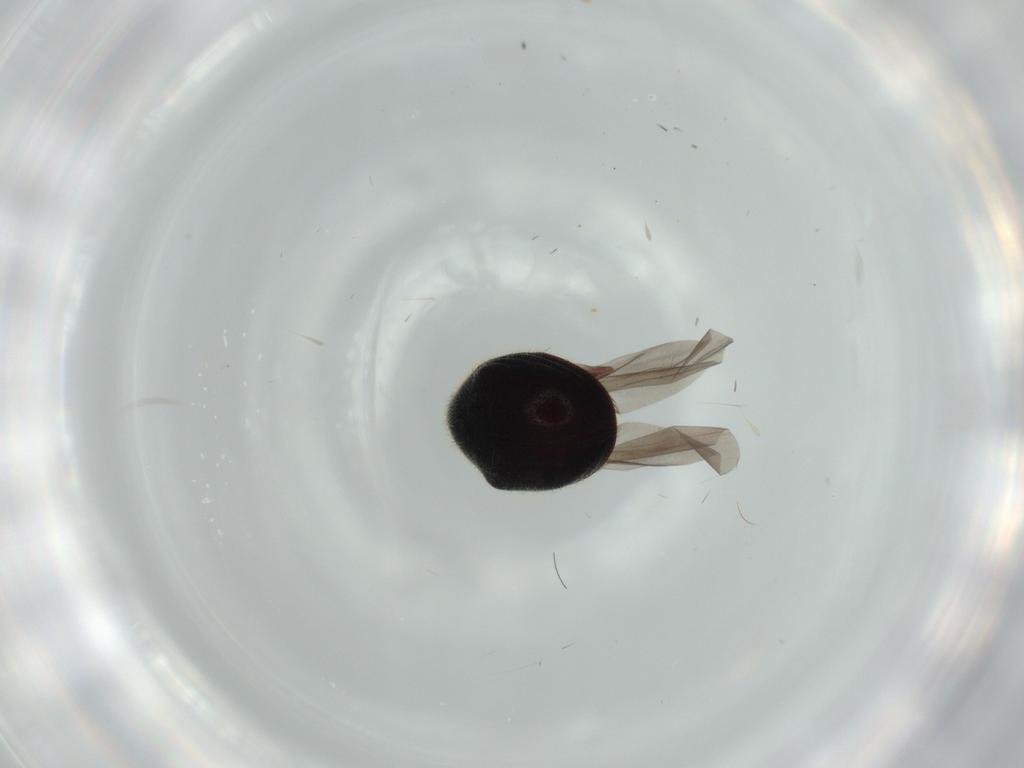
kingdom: Animalia
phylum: Arthropoda
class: Insecta
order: Coleoptera
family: Ptinidae
